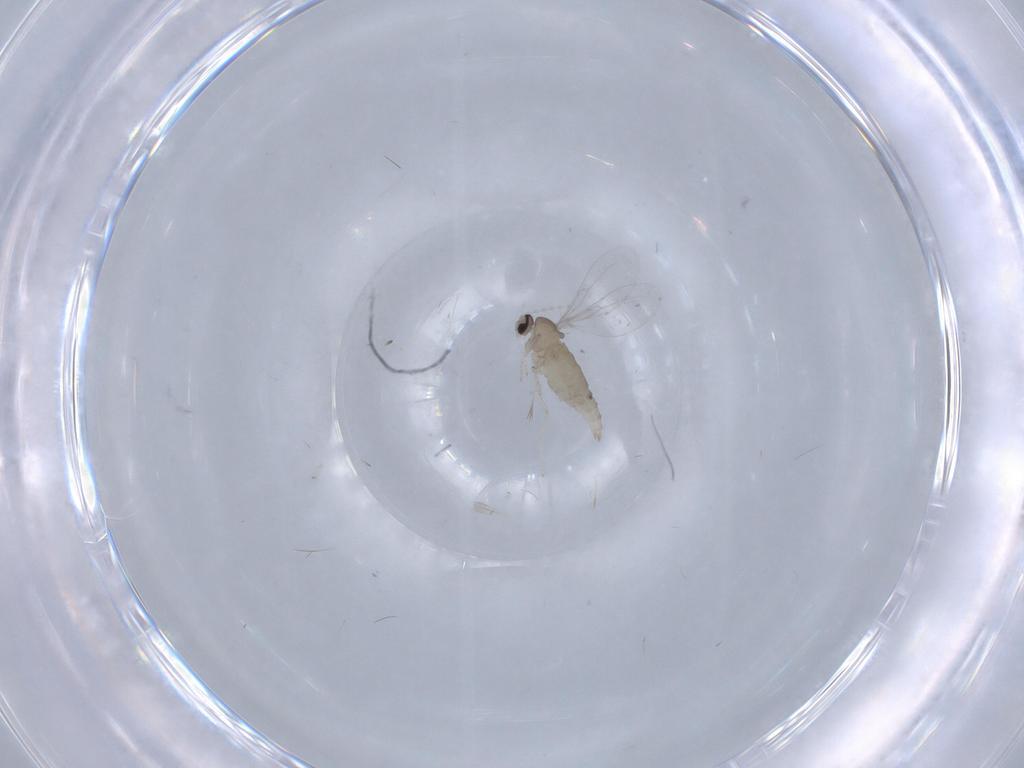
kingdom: Animalia
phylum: Arthropoda
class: Insecta
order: Diptera
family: Cecidomyiidae
